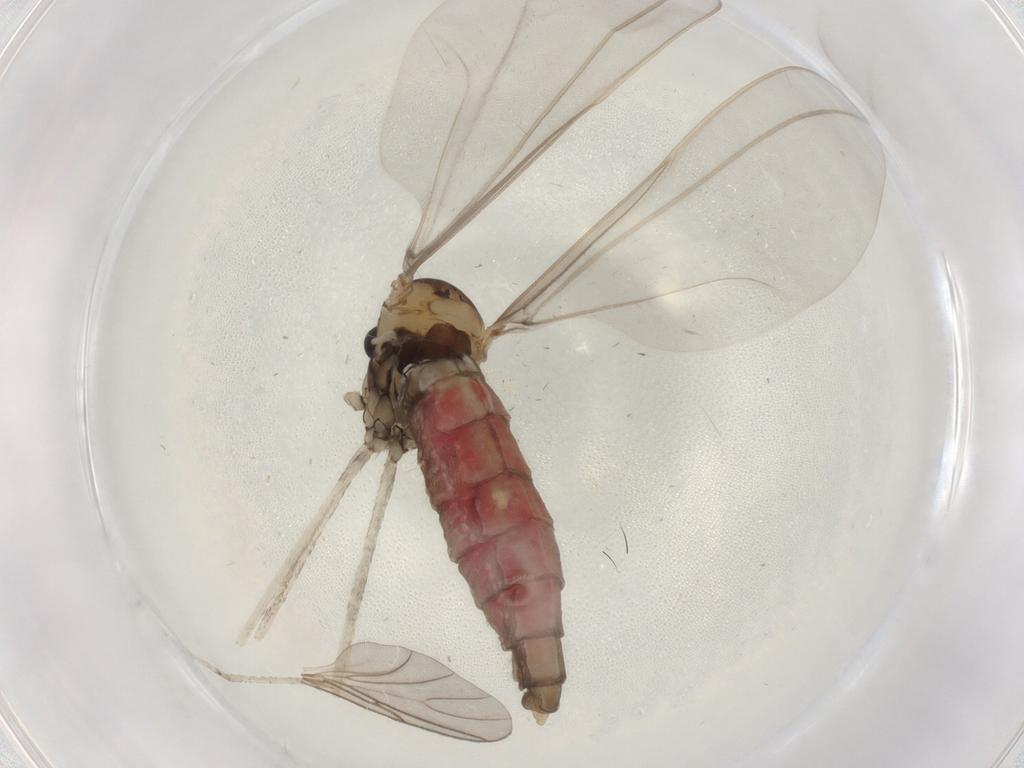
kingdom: Animalia
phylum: Arthropoda
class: Insecta
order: Diptera
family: Cecidomyiidae
